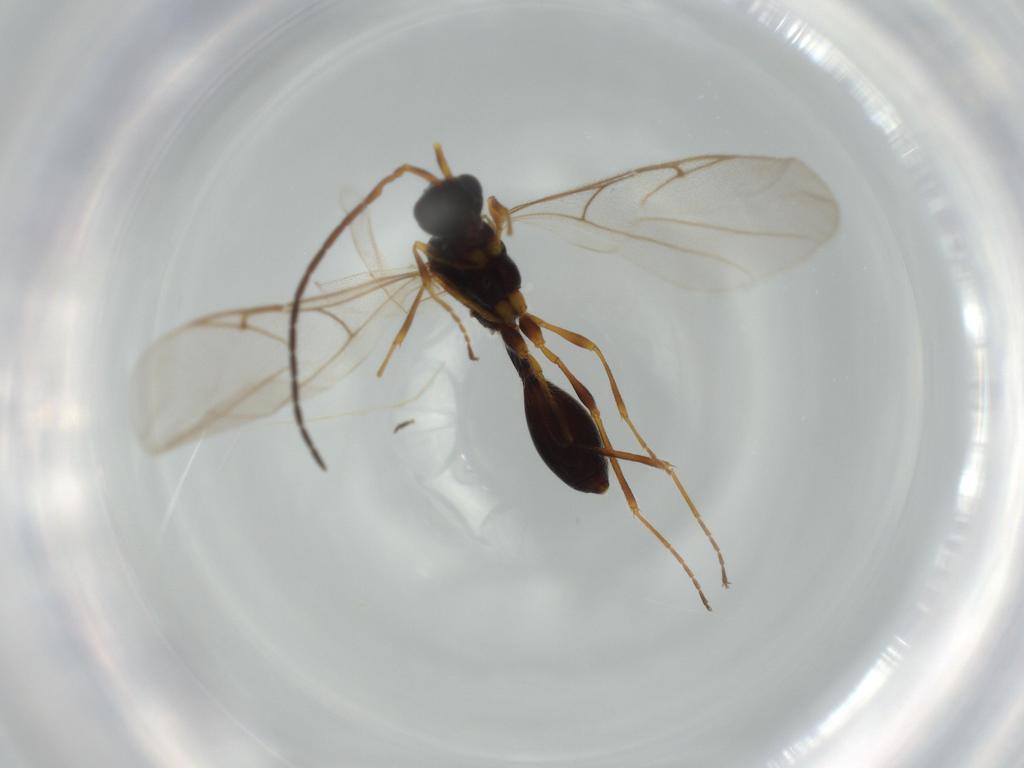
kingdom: Animalia
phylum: Arthropoda
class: Insecta
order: Hymenoptera
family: Diapriidae
